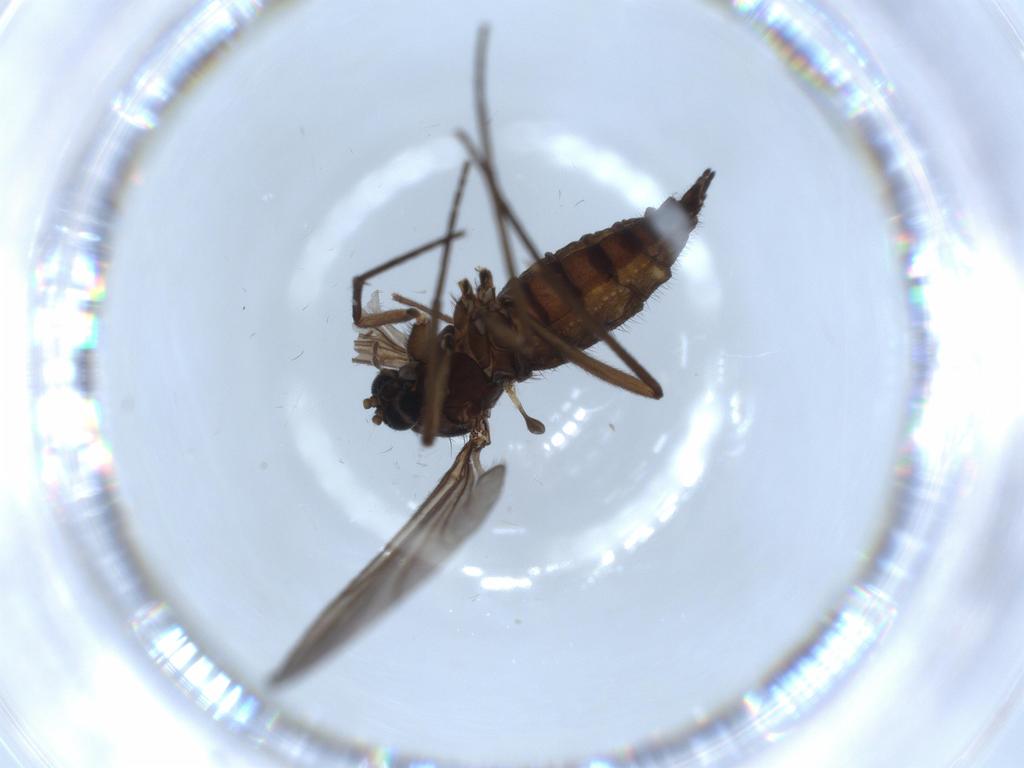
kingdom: Animalia
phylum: Arthropoda
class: Insecta
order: Diptera
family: Sciaridae
